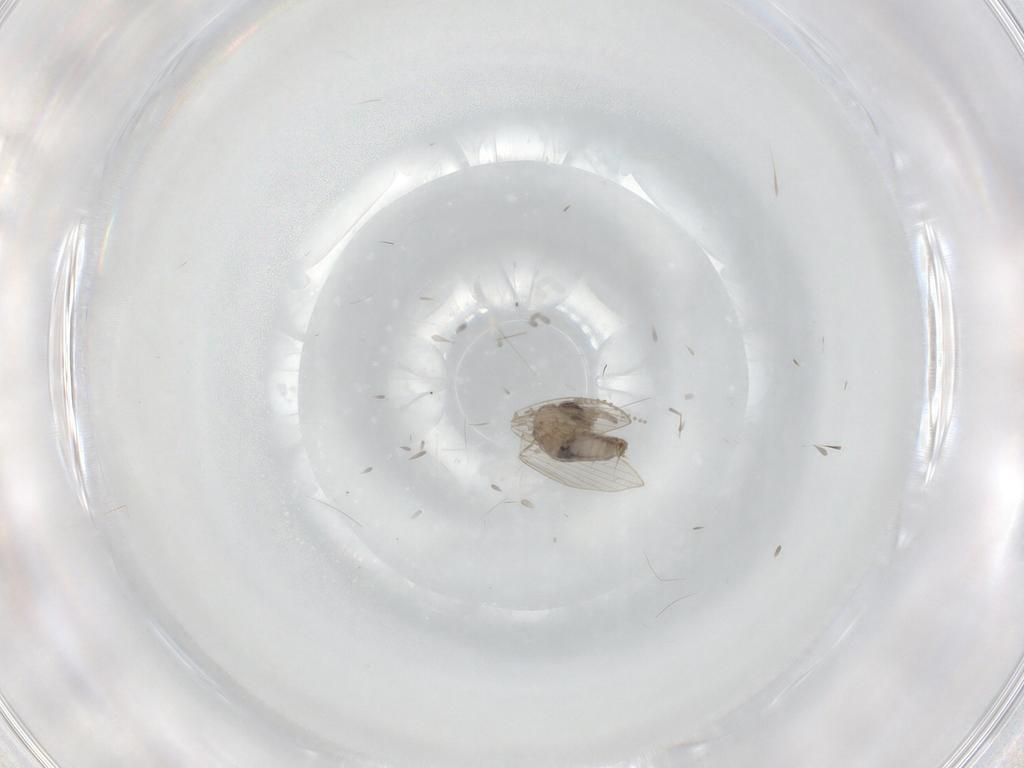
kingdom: Animalia
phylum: Arthropoda
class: Insecta
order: Diptera
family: Psychodidae
